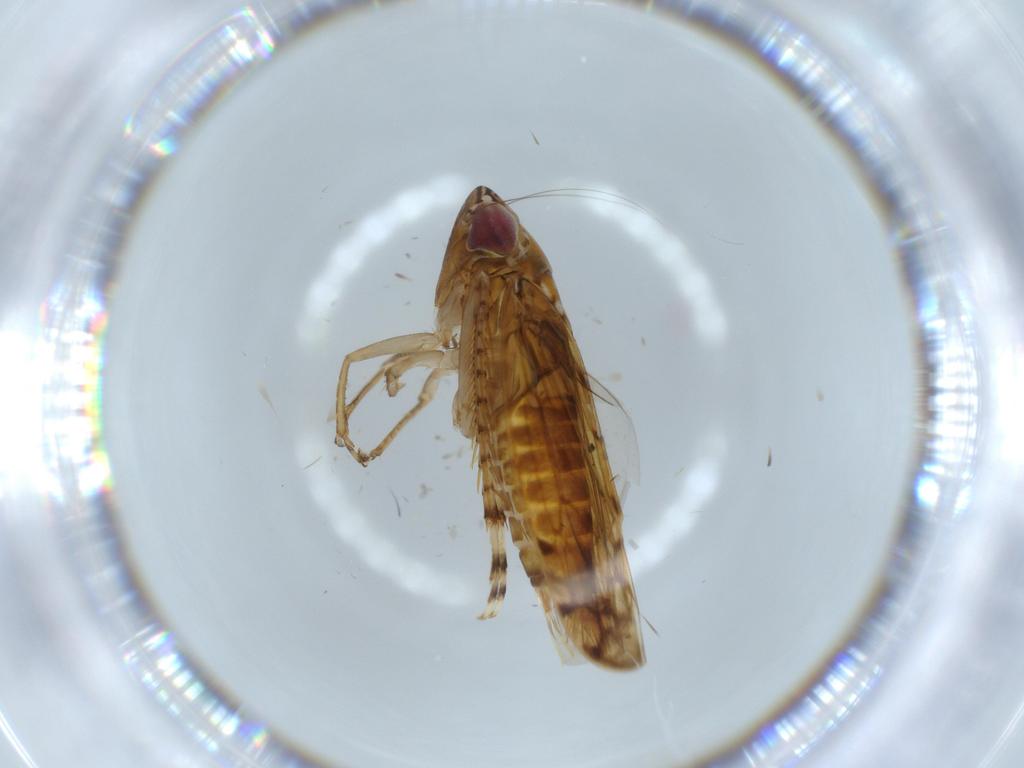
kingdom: Animalia
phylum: Arthropoda
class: Insecta
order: Hemiptera
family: Cicadellidae
